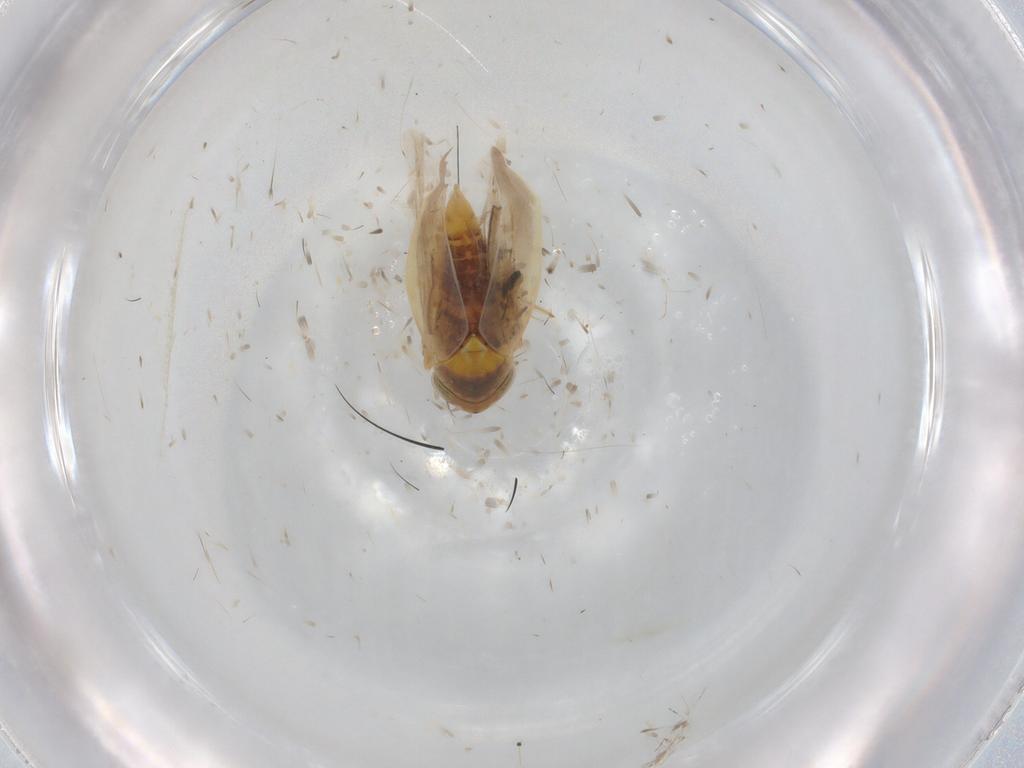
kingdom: Animalia
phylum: Arthropoda
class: Insecta
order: Hemiptera
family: Cicadellidae
